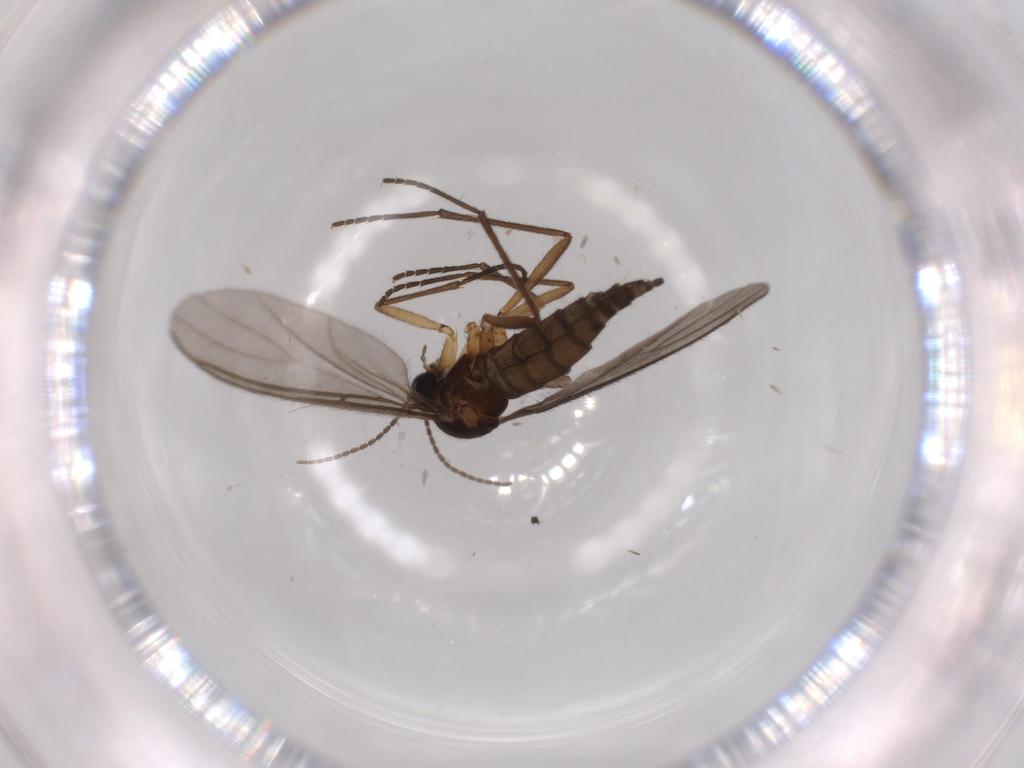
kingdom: Animalia
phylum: Arthropoda
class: Insecta
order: Diptera
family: Sciaridae
